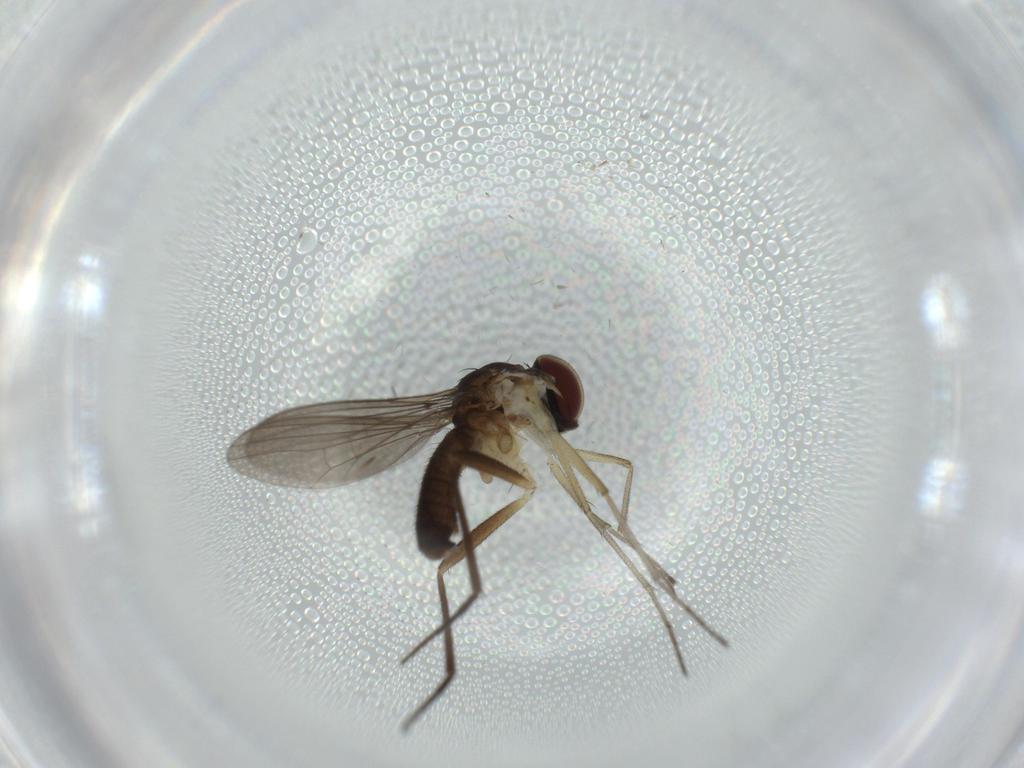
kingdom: Animalia
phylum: Arthropoda
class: Insecta
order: Diptera
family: Dolichopodidae
